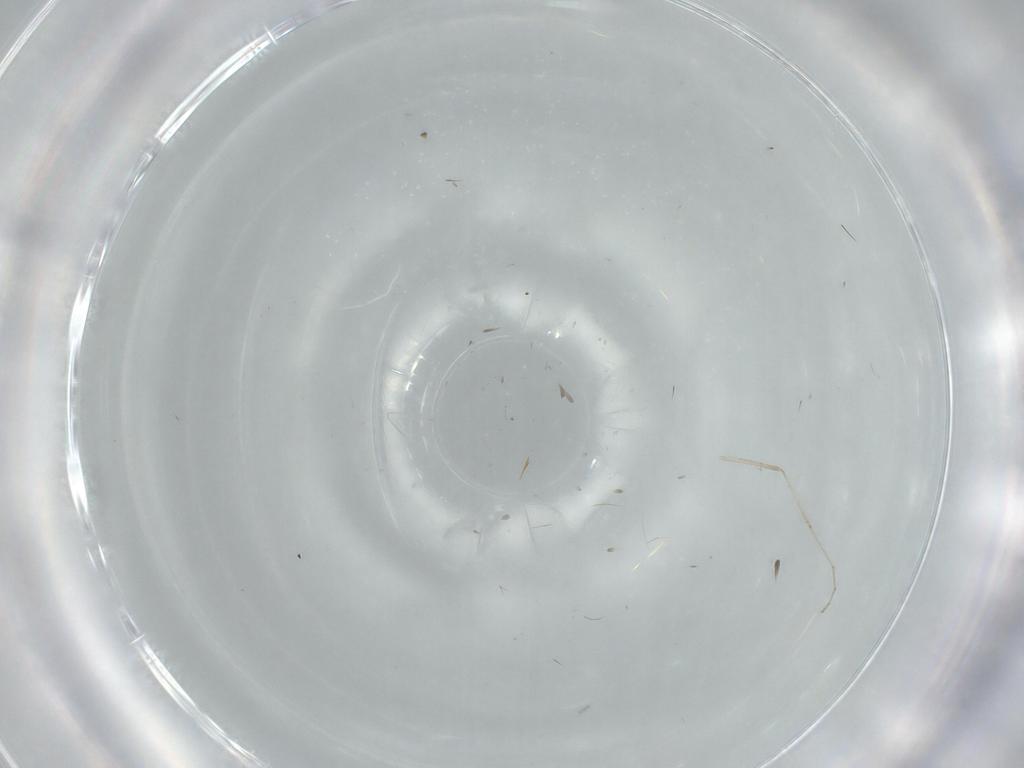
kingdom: Animalia
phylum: Arthropoda
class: Insecta
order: Diptera
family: Cecidomyiidae
